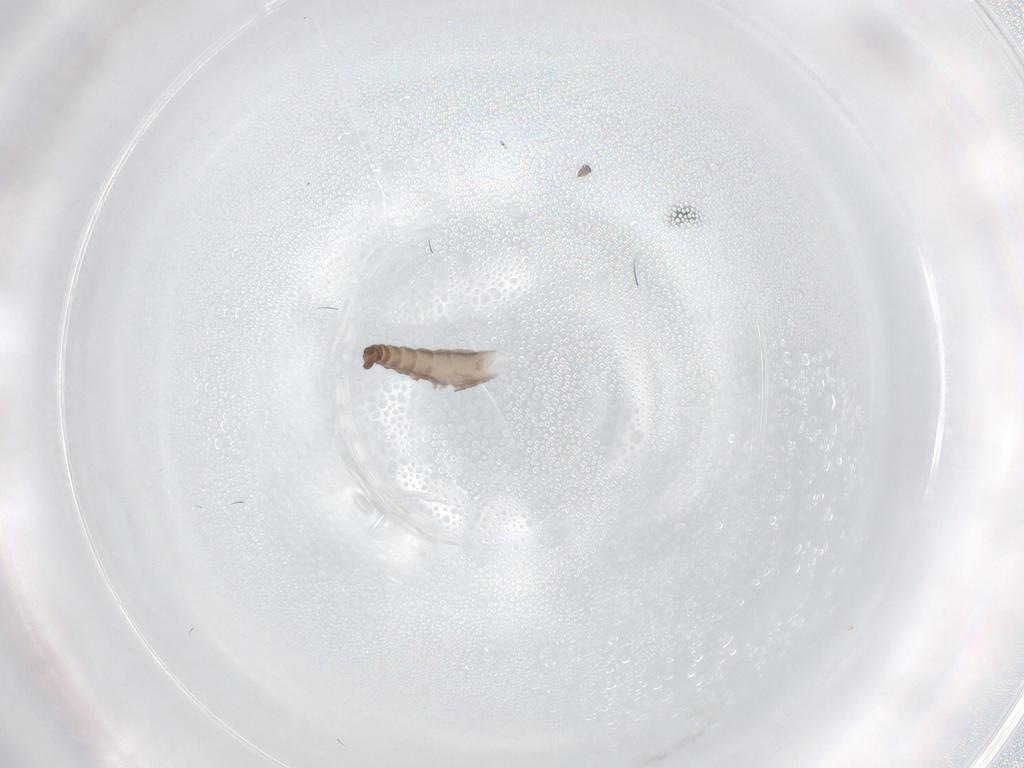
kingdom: Animalia
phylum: Arthropoda
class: Insecta
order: Diptera
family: Ceratopogonidae
